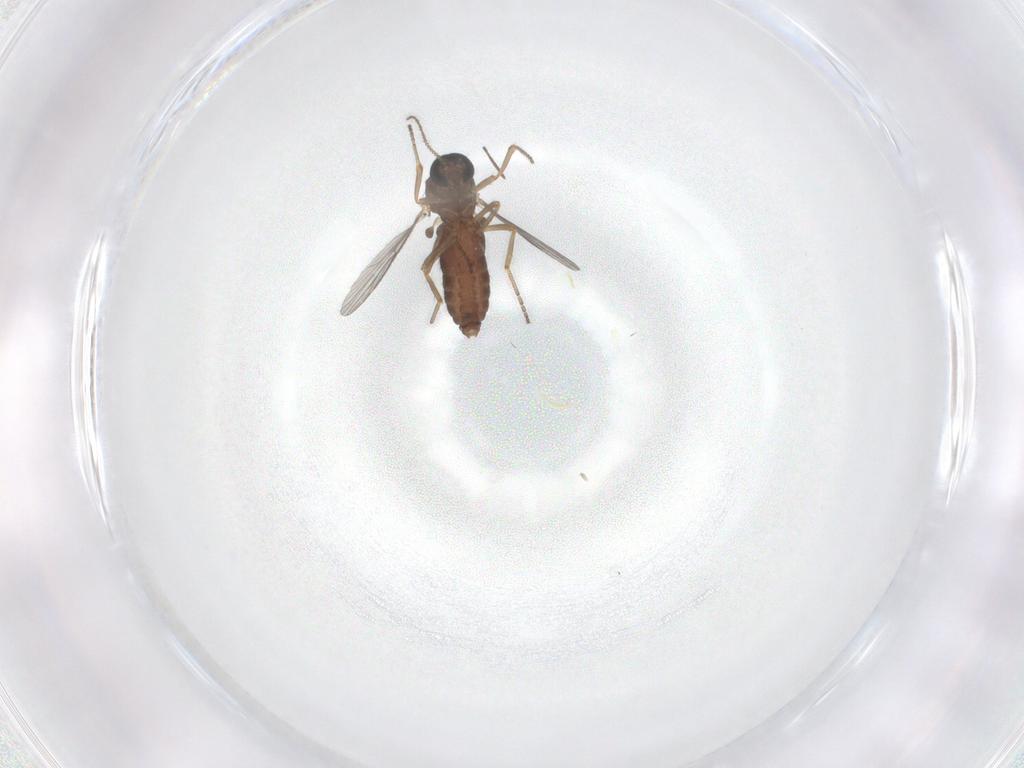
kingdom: Animalia
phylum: Arthropoda
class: Insecta
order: Diptera
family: Ceratopogonidae
